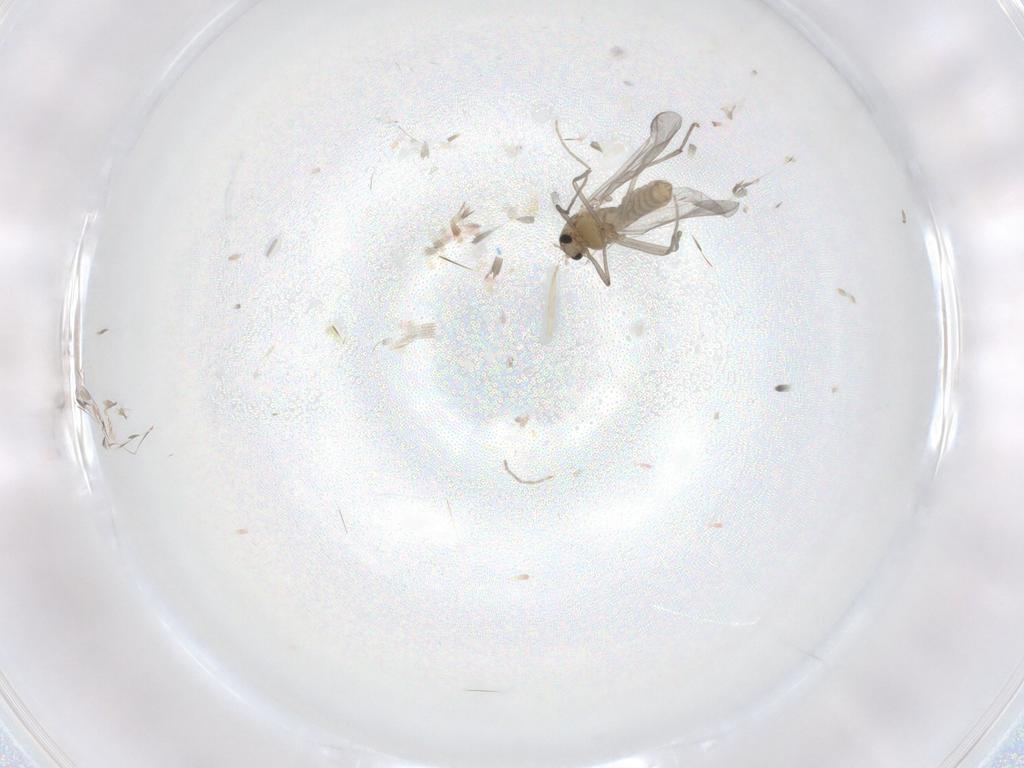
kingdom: Animalia
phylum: Arthropoda
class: Insecta
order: Diptera
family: Chironomidae
